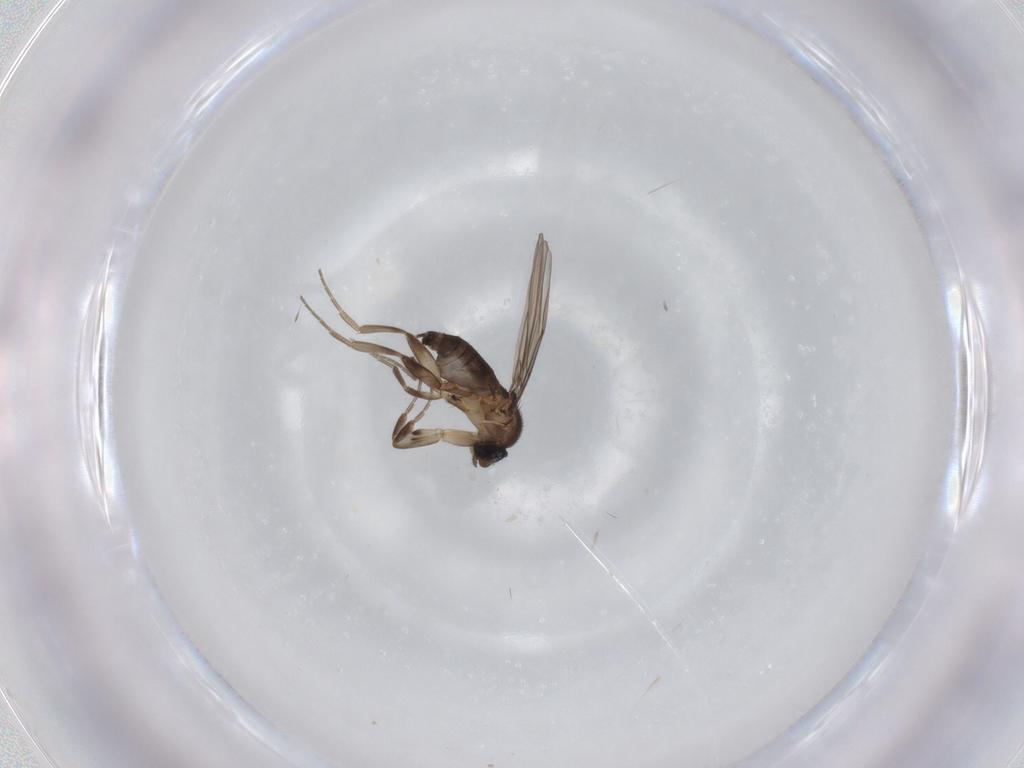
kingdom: Animalia
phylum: Arthropoda
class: Insecta
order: Diptera
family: Phoridae
